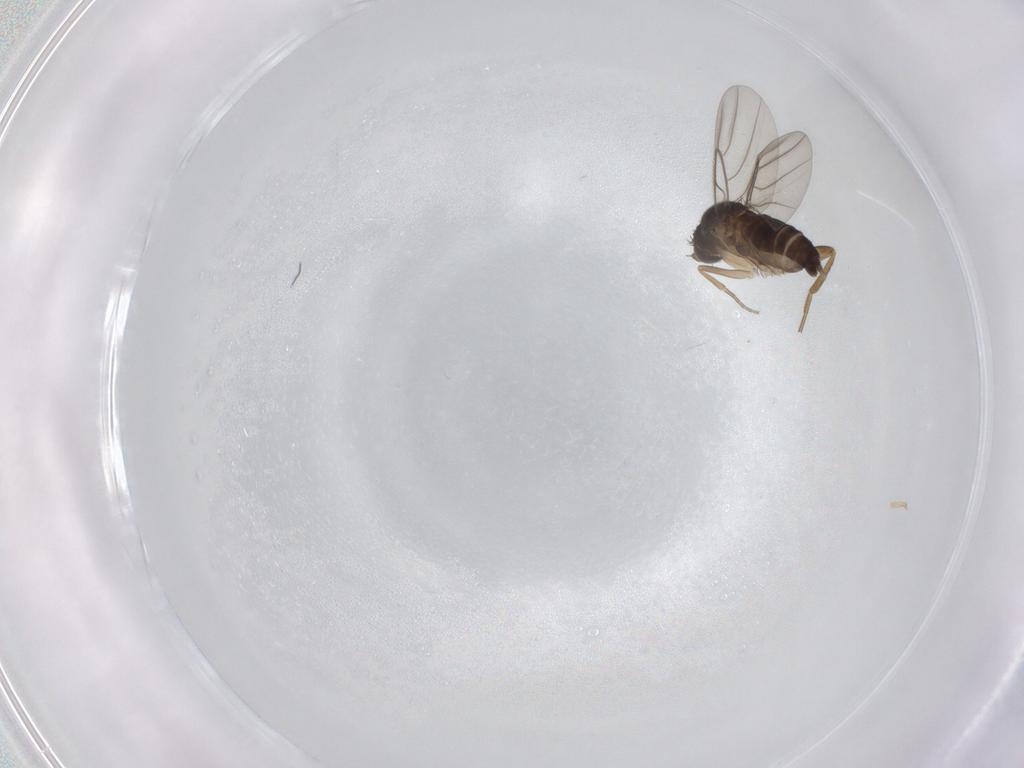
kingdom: Animalia
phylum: Arthropoda
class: Insecta
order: Diptera
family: Phoridae
